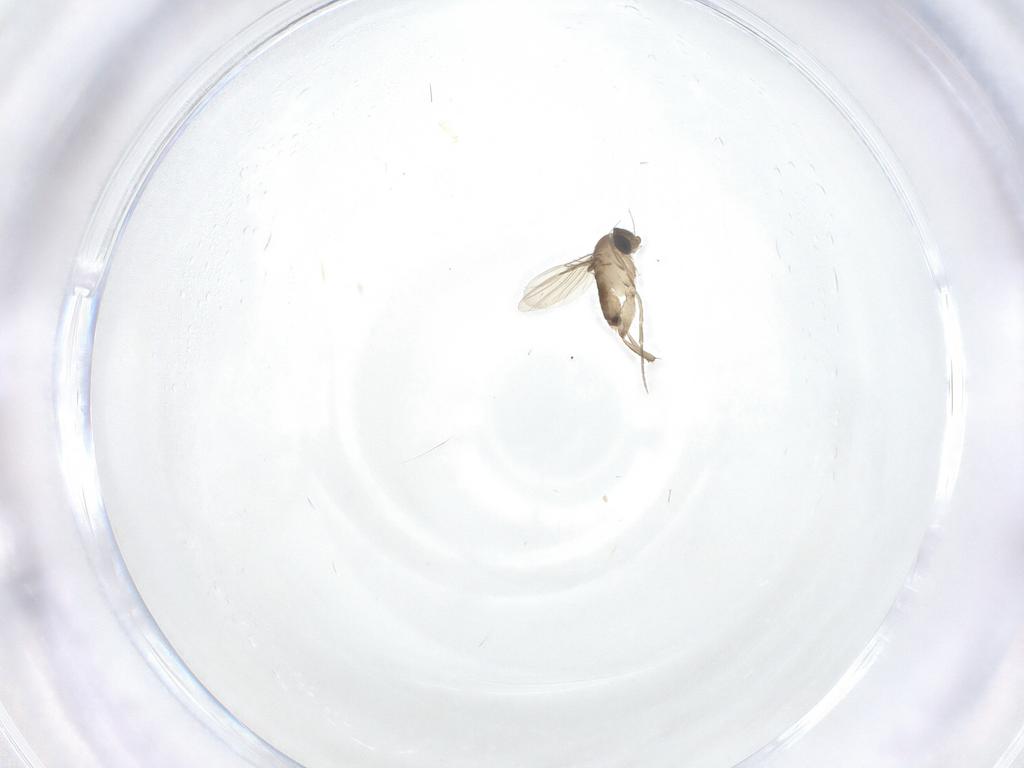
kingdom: Animalia
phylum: Arthropoda
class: Insecta
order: Diptera
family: Phoridae
